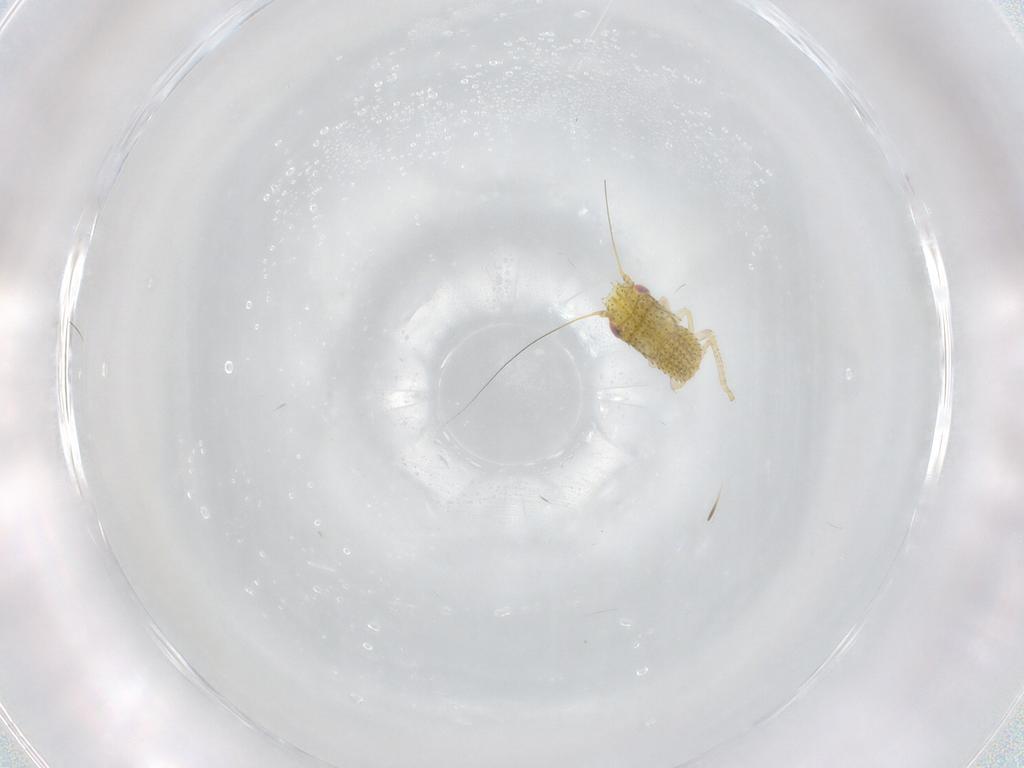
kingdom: Animalia
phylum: Arthropoda
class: Insecta
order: Hemiptera
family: Cicadellidae
